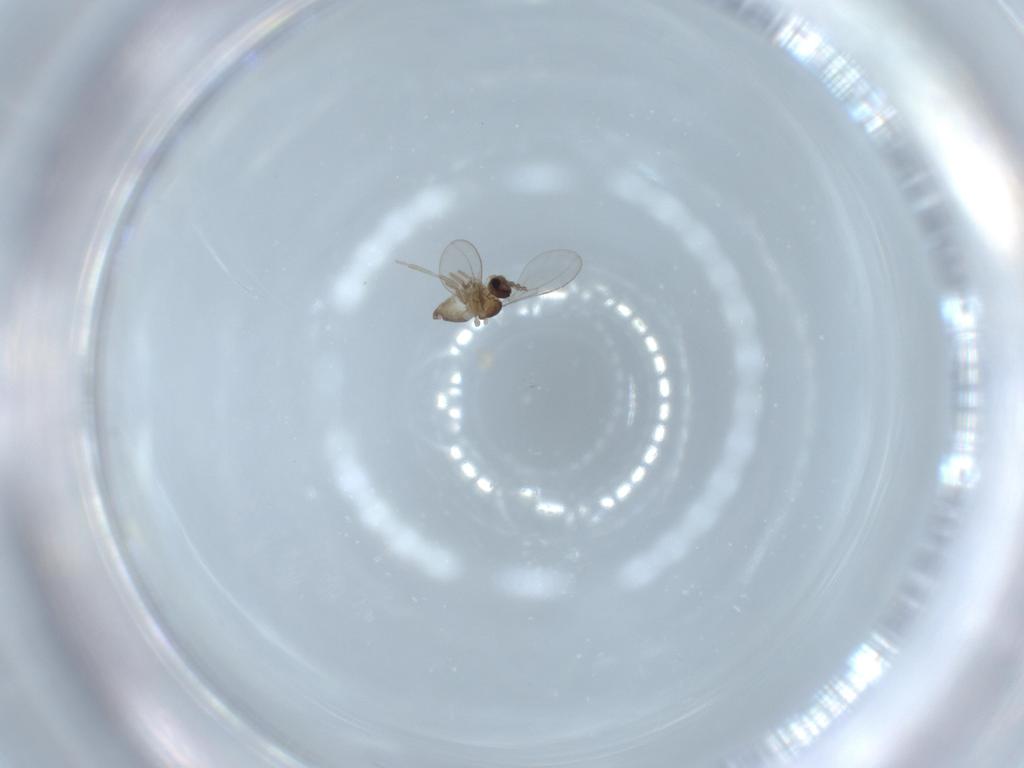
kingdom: Animalia
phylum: Arthropoda
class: Insecta
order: Diptera
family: Cecidomyiidae
